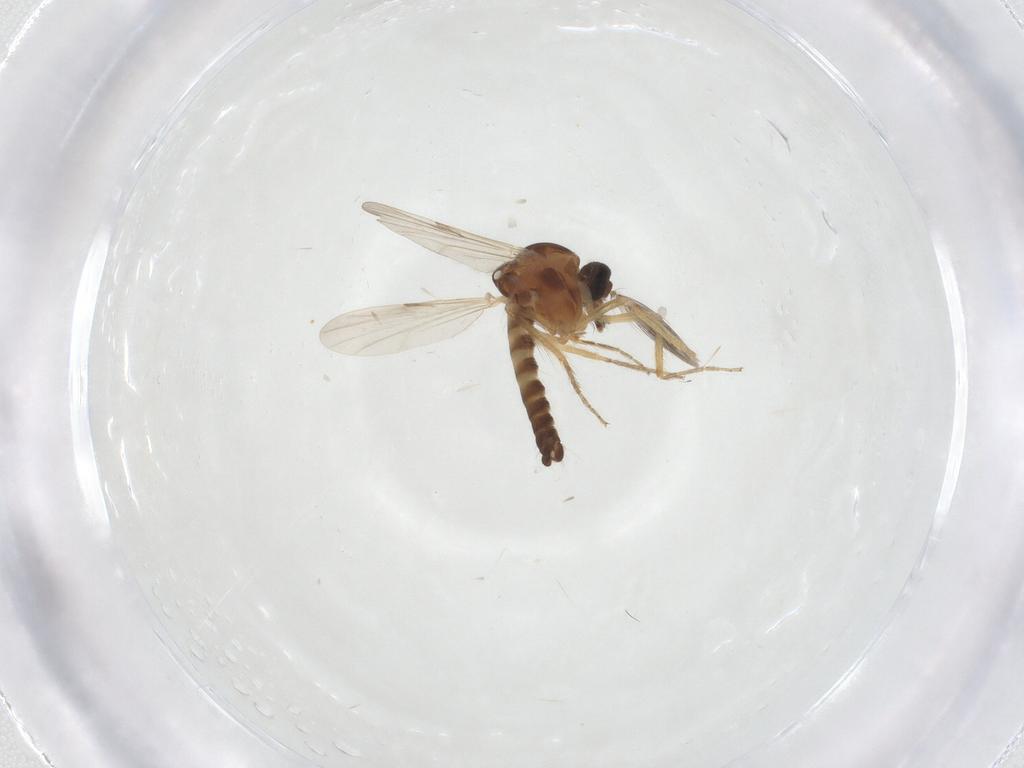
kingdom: Animalia
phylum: Arthropoda
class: Insecta
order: Diptera
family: Ceratopogonidae
